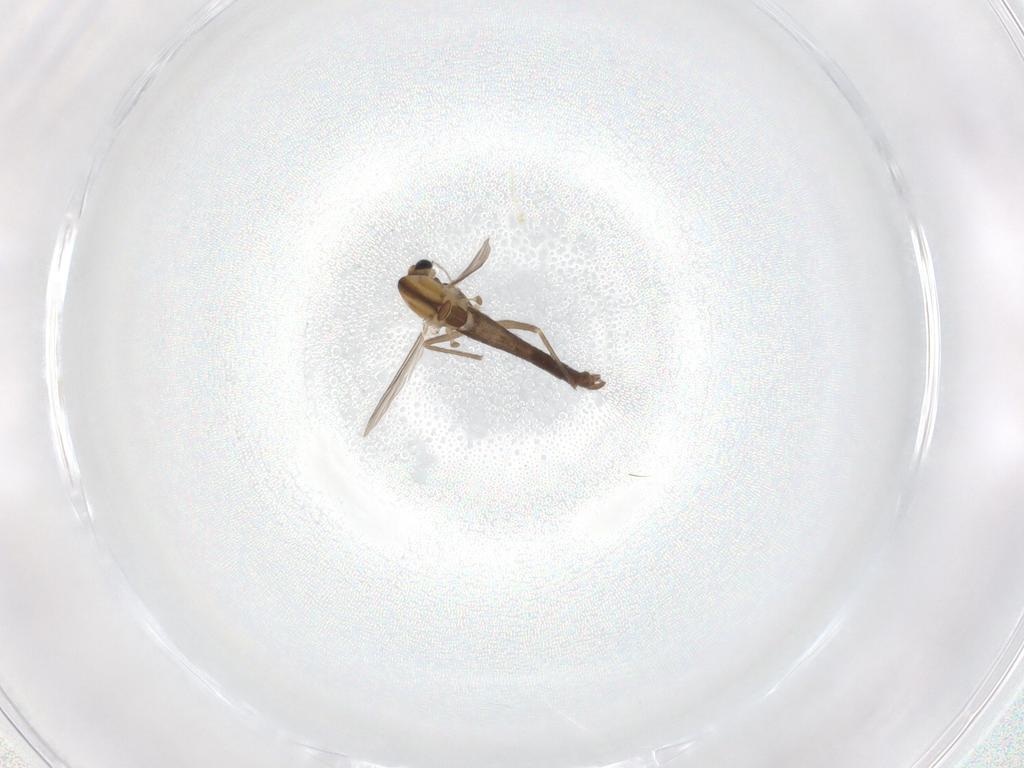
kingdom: Animalia
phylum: Arthropoda
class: Insecta
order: Diptera
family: Chironomidae
